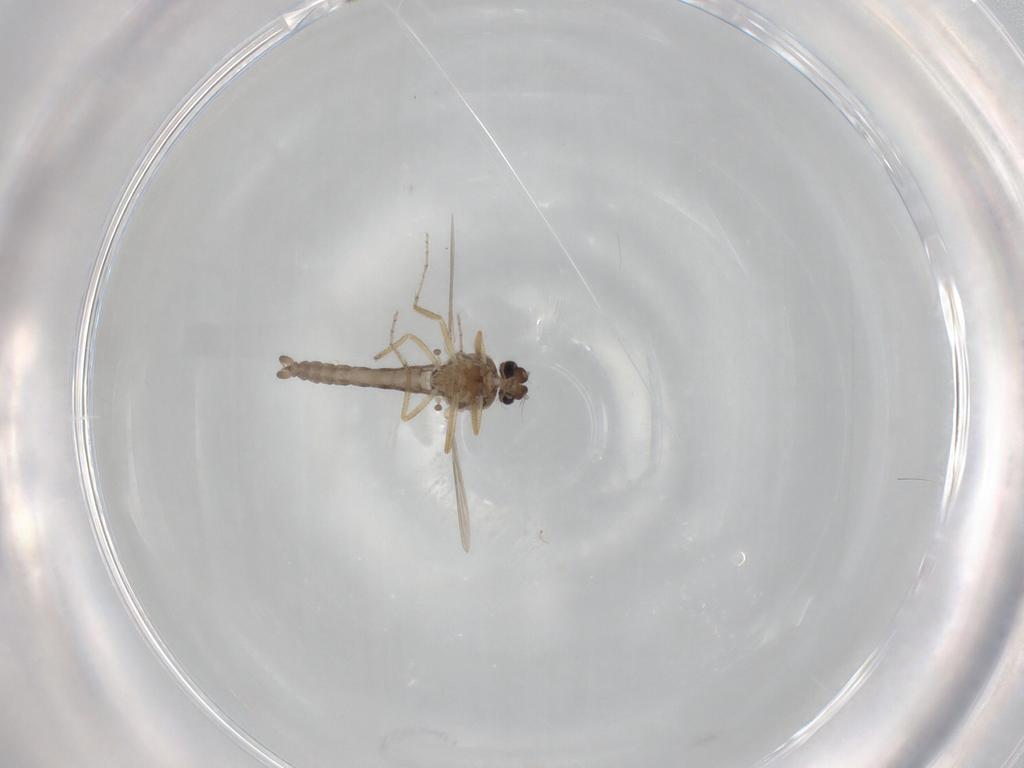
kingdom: Animalia
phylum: Arthropoda
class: Insecta
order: Diptera
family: Ceratopogonidae
